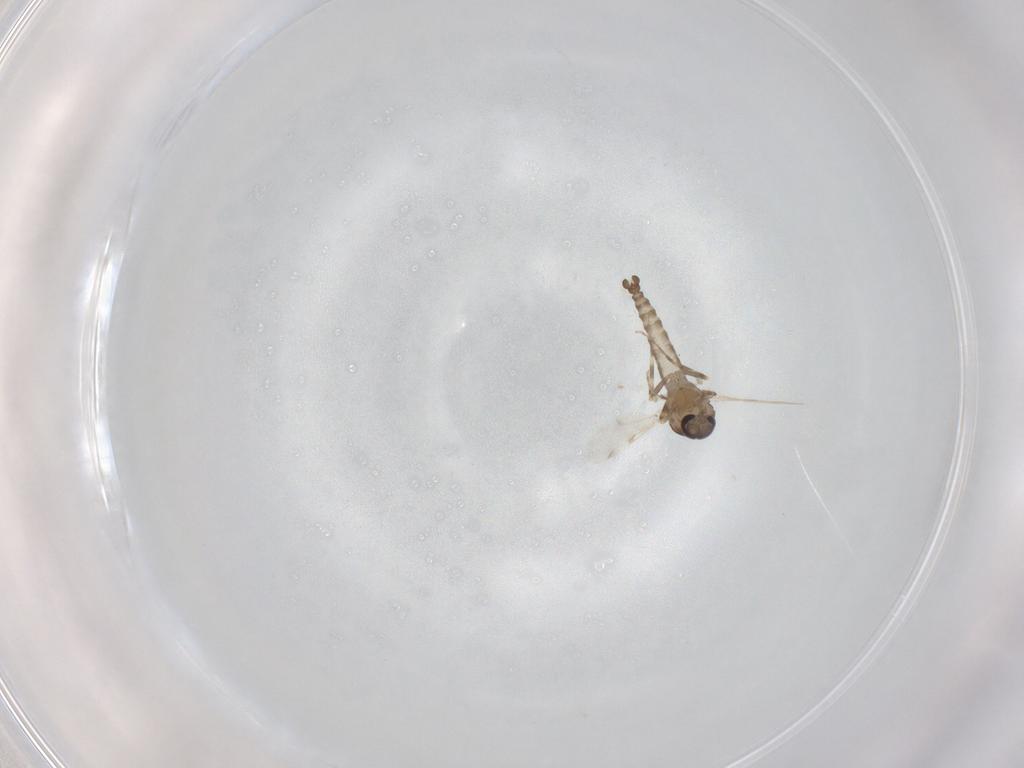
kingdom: Animalia
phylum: Arthropoda
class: Insecta
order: Diptera
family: Ceratopogonidae
